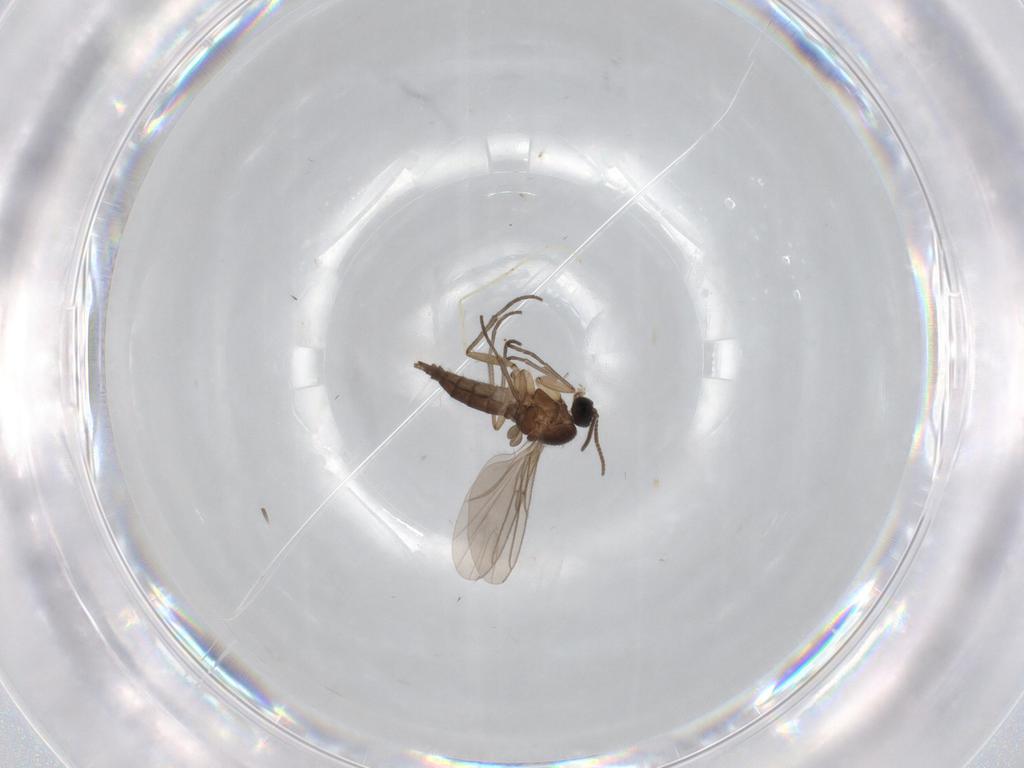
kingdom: Animalia
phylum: Arthropoda
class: Insecta
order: Diptera
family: Sciaridae
